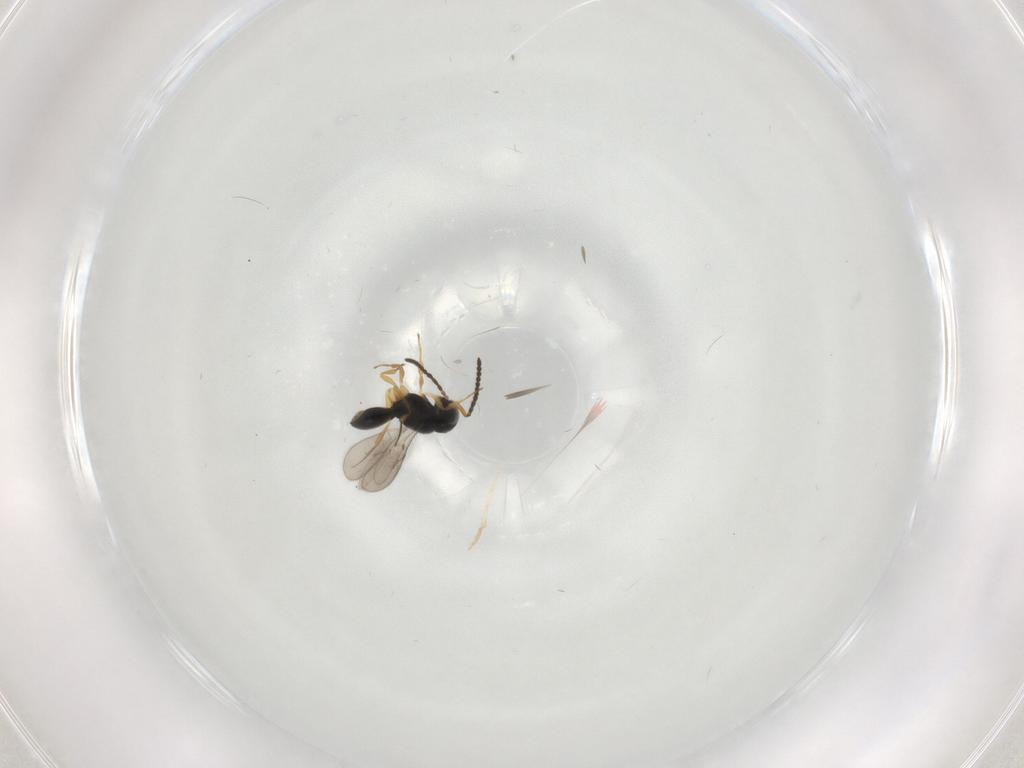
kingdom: Animalia
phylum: Arthropoda
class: Insecta
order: Hymenoptera
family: Scelionidae
